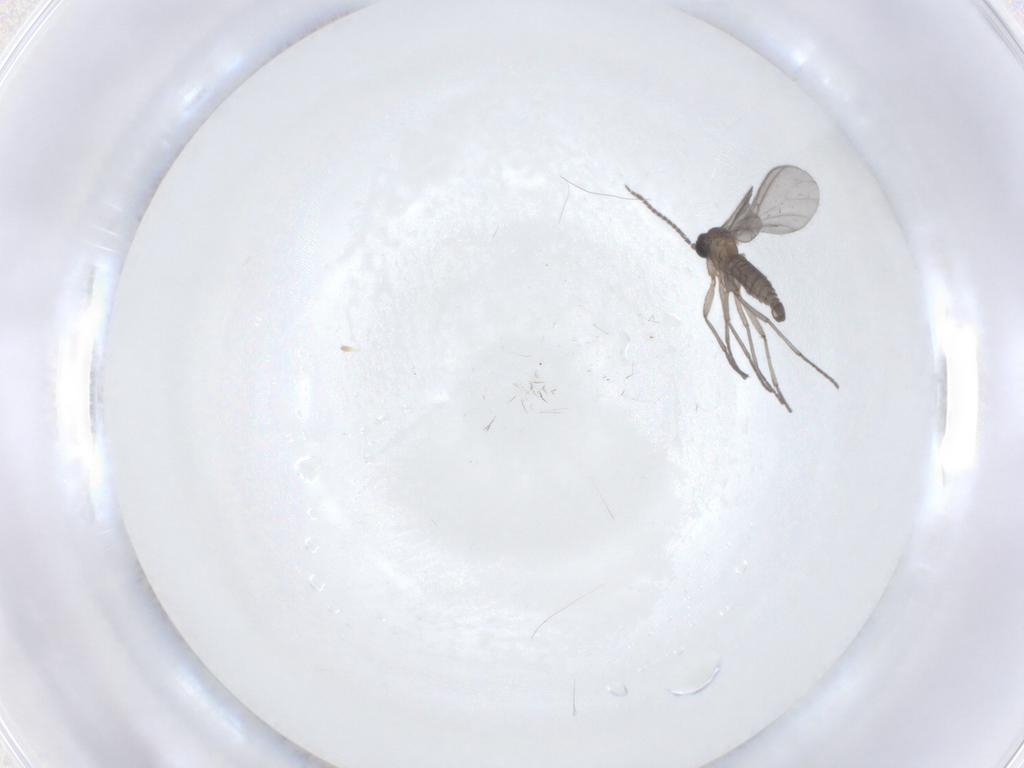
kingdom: Animalia
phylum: Arthropoda
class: Insecta
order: Diptera
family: Sciaridae
